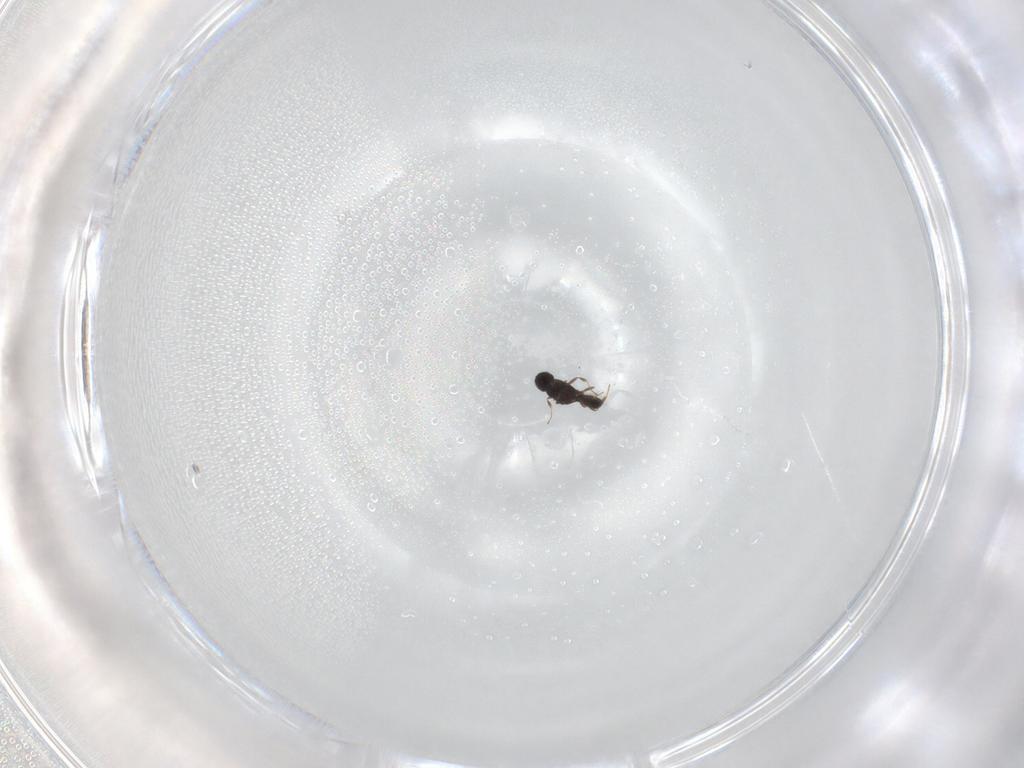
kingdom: Animalia
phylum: Arthropoda
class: Insecta
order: Hymenoptera
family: Scelionidae
